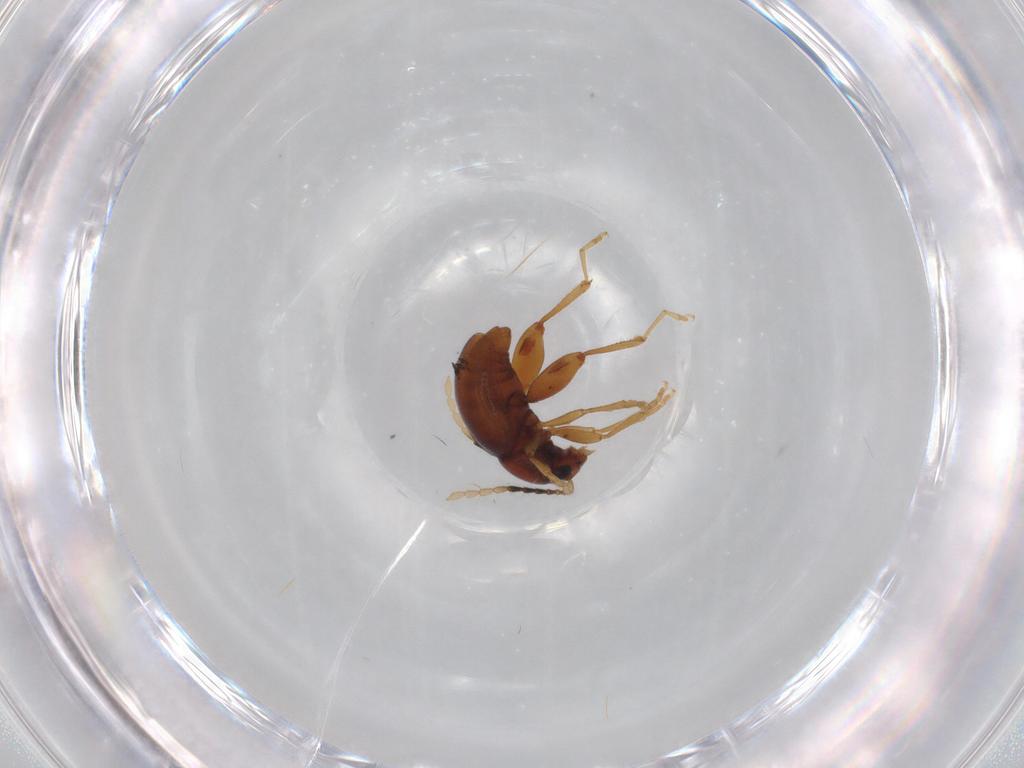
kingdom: Animalia
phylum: Arthropoda
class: Insecta
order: Coleoptera
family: Chrysomelidae
